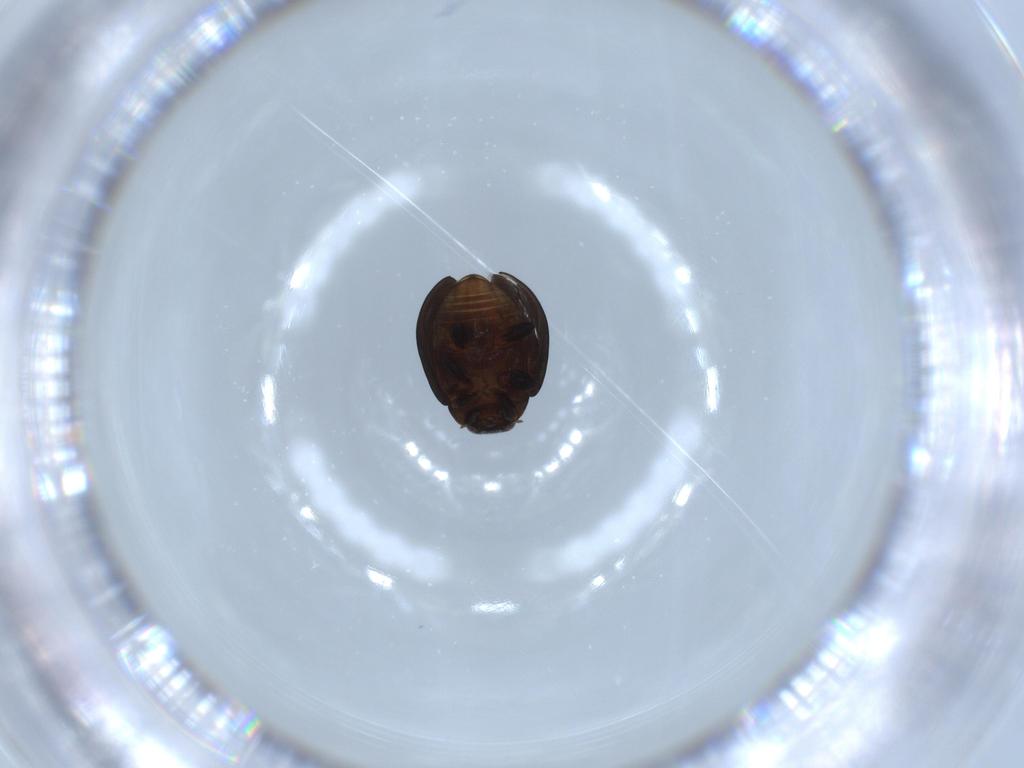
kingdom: Animalia
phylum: Arthropoda
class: Insecta
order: Coleoptera
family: Coccinellidae
